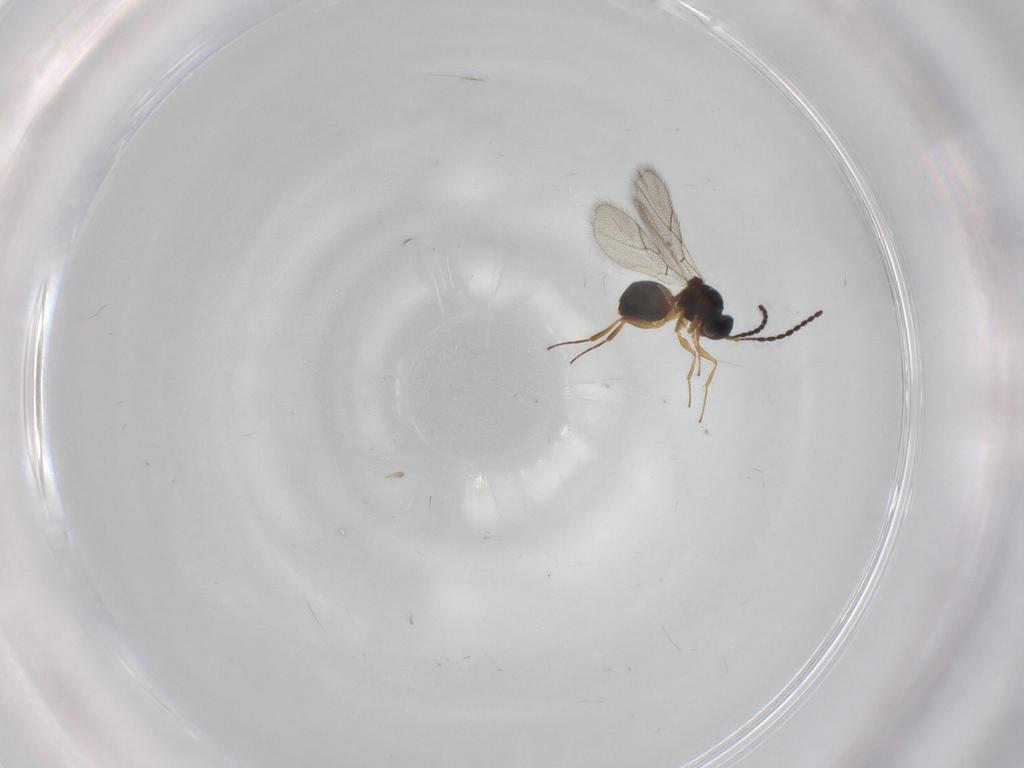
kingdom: Animalia
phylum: Arthropoda
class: Insecta
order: Hymenoptera
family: Figitidae
